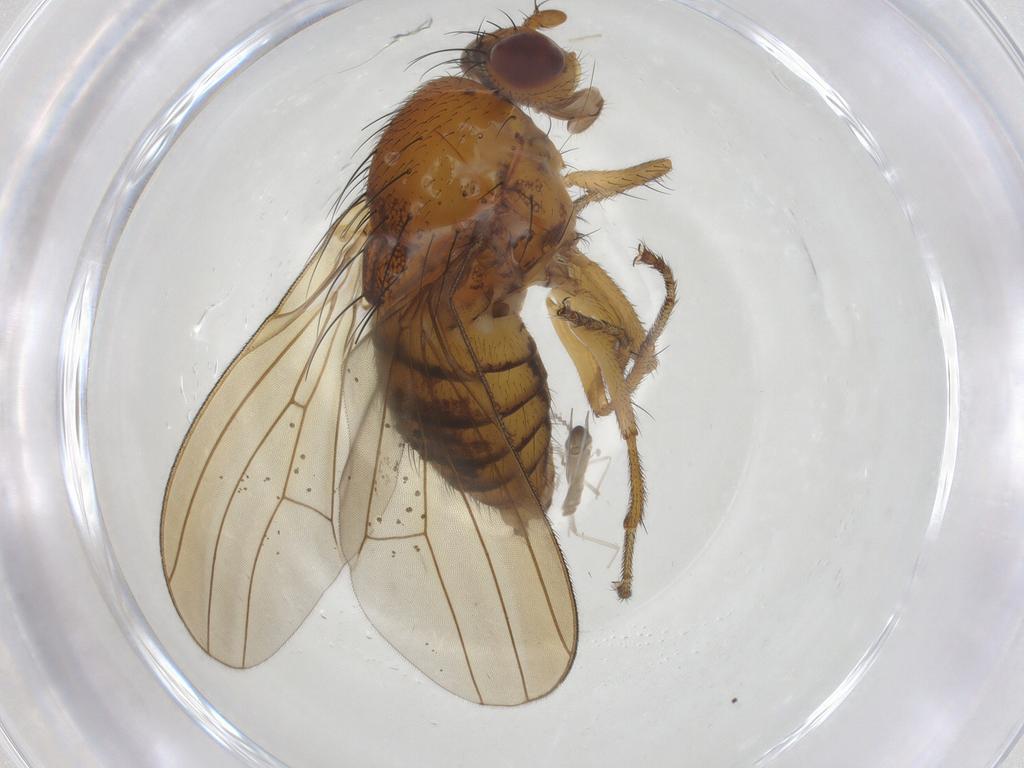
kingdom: Animalia
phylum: Arthropoda
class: Insecta
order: Diptera
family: Lauxaniidae
